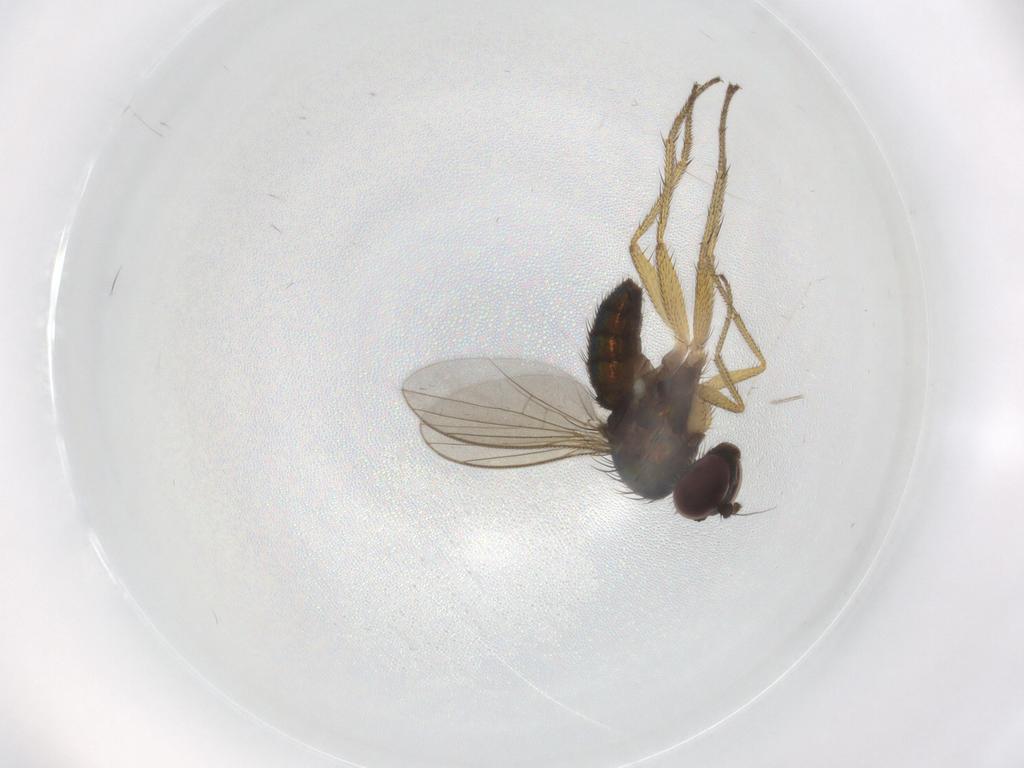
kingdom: Animalia
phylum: Arthropoda
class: Insecta
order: Diptera
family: Cecidomyiidae
